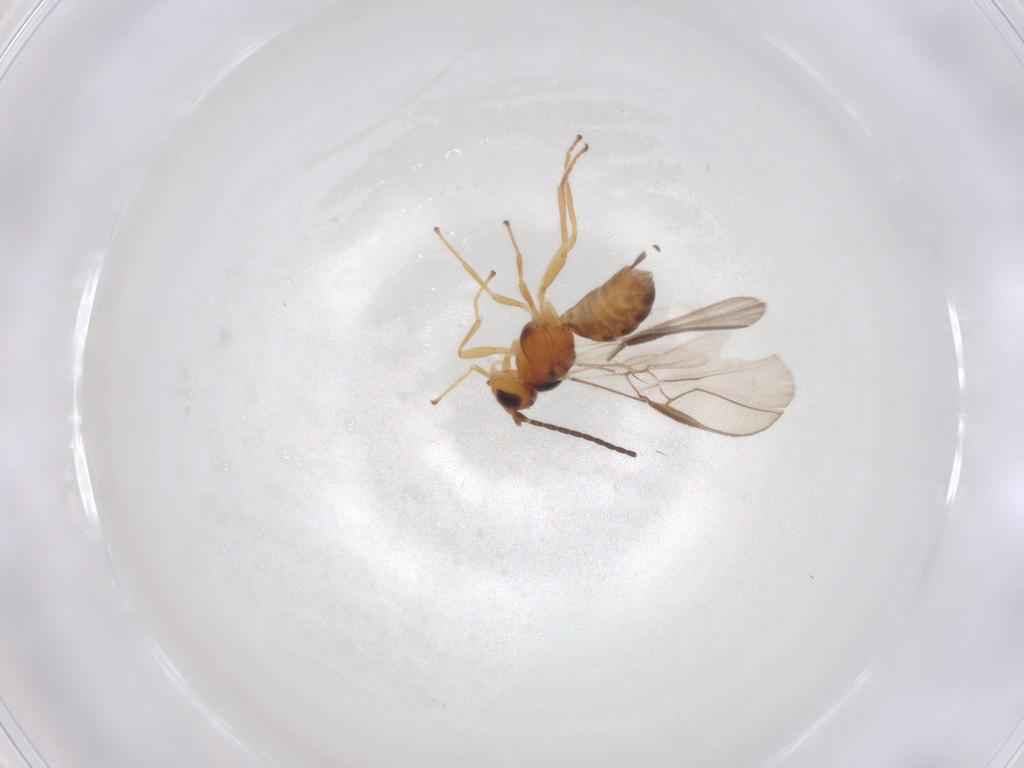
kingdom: Animalia
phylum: Arthropoda
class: Insecta
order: Hymenoptera
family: Braconidae
